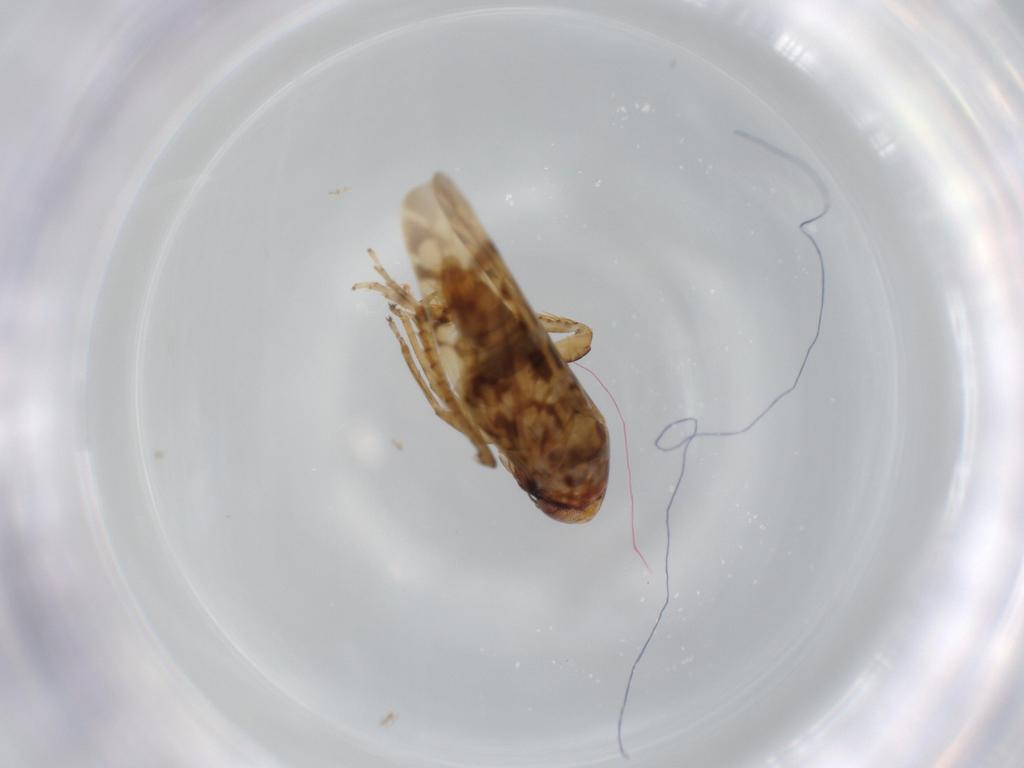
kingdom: Animalia
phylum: Arthropoda
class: Insecta
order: Hemiptera
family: Cicadellidae
